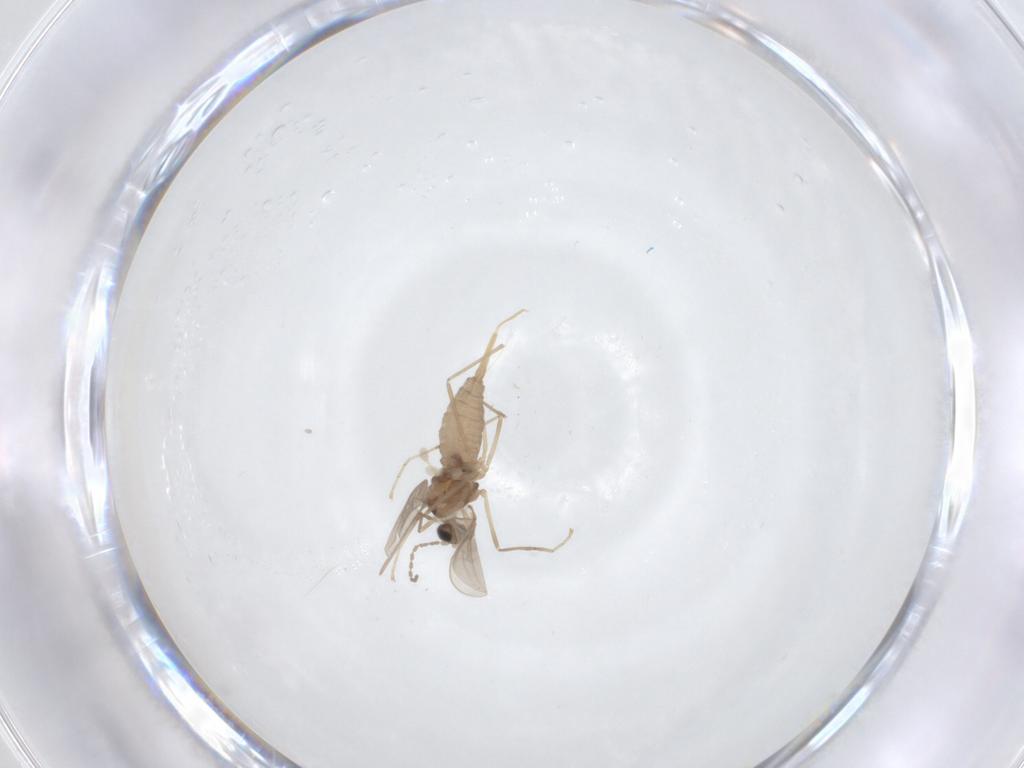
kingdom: Animalia
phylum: Arthropoda
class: Insecta
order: Diptera
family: Cecidomyiidae
